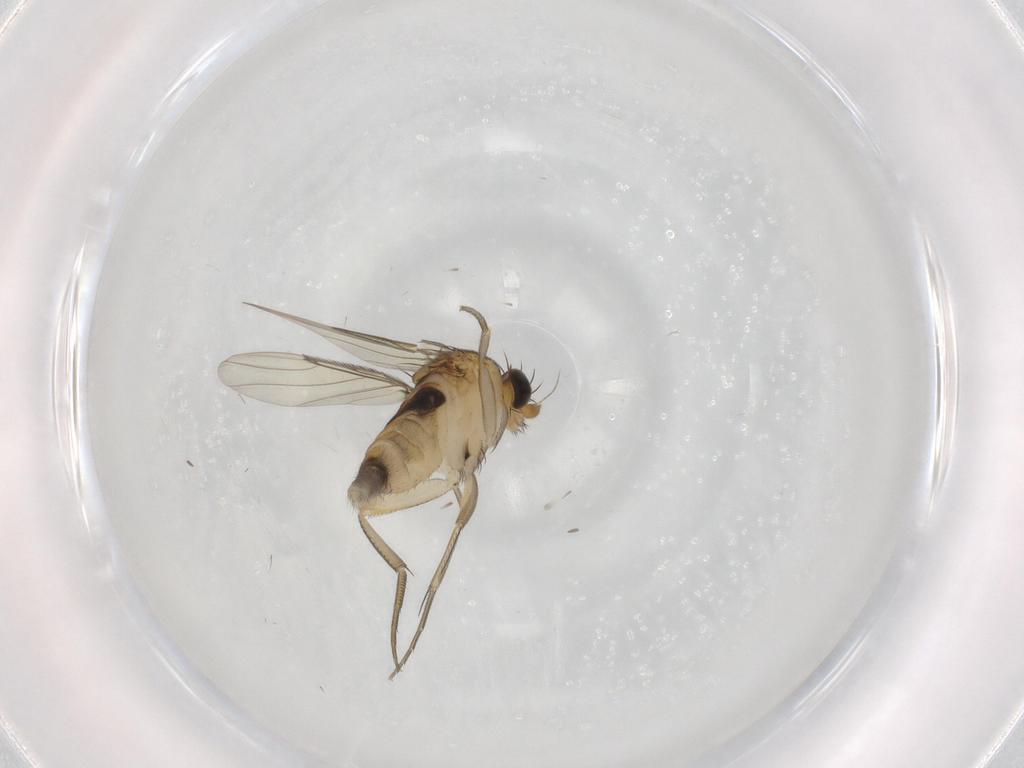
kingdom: Animalia
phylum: Arthropoda
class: Insecta
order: Diptera
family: Phoridae
